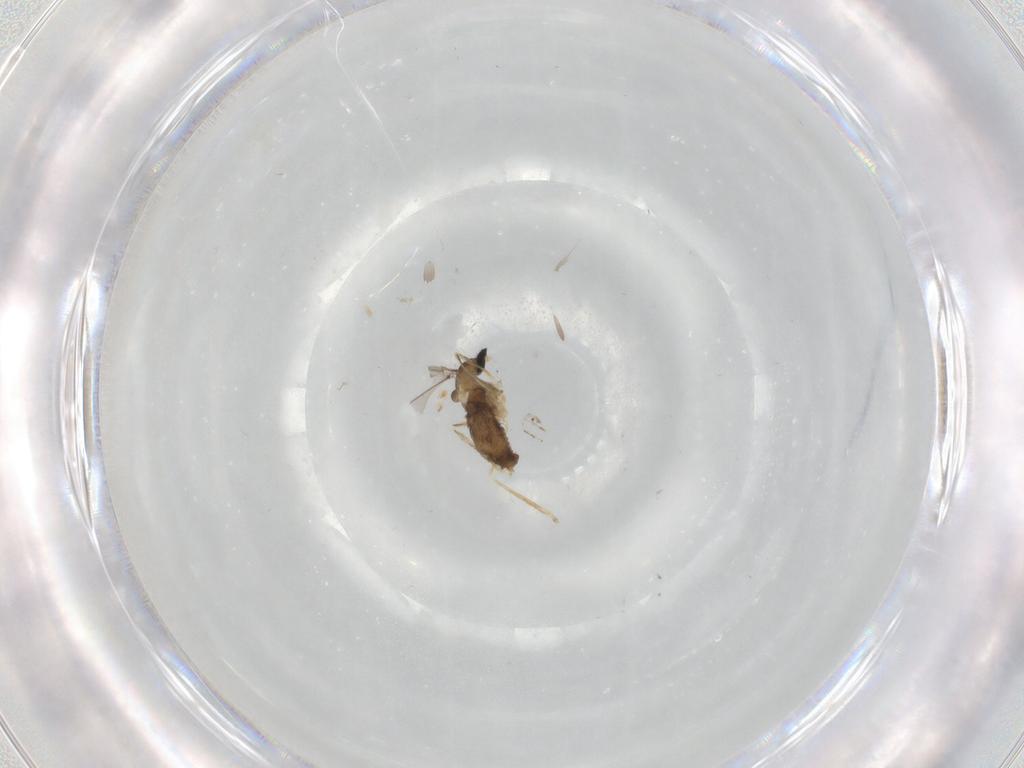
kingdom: Animalia
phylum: Arthropoda
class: Insecta
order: Diptera
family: Cecidomyiidae
